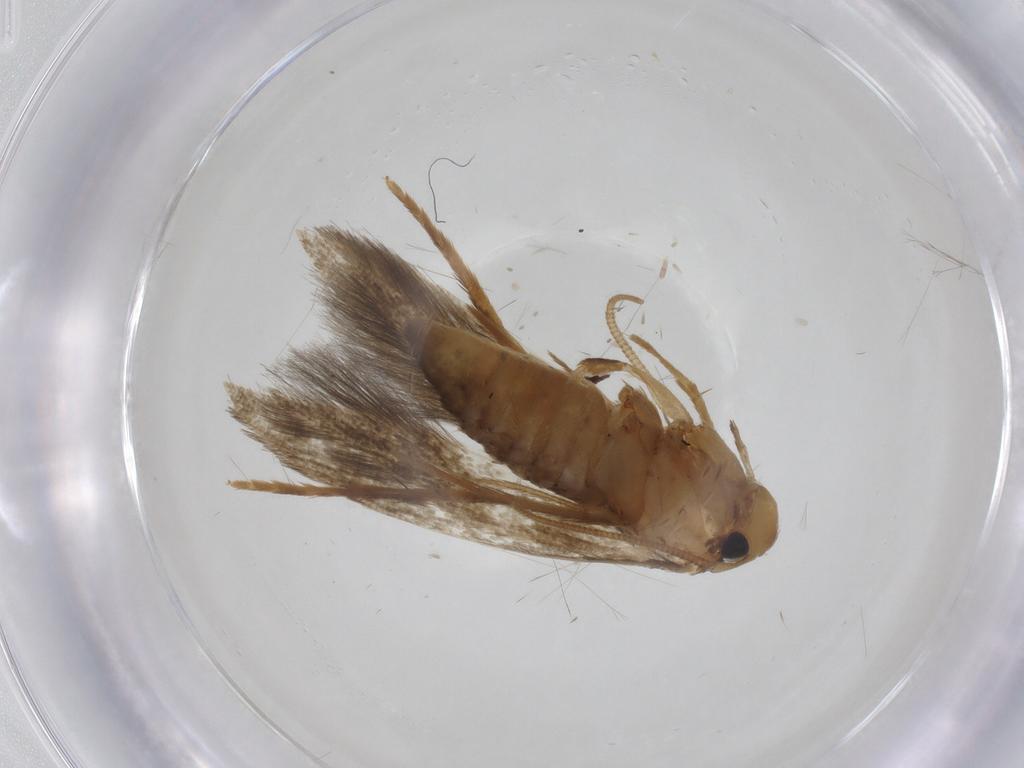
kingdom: Animalia
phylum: Arthropoda
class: Insecta
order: Lepidoptera
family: Tineidae
